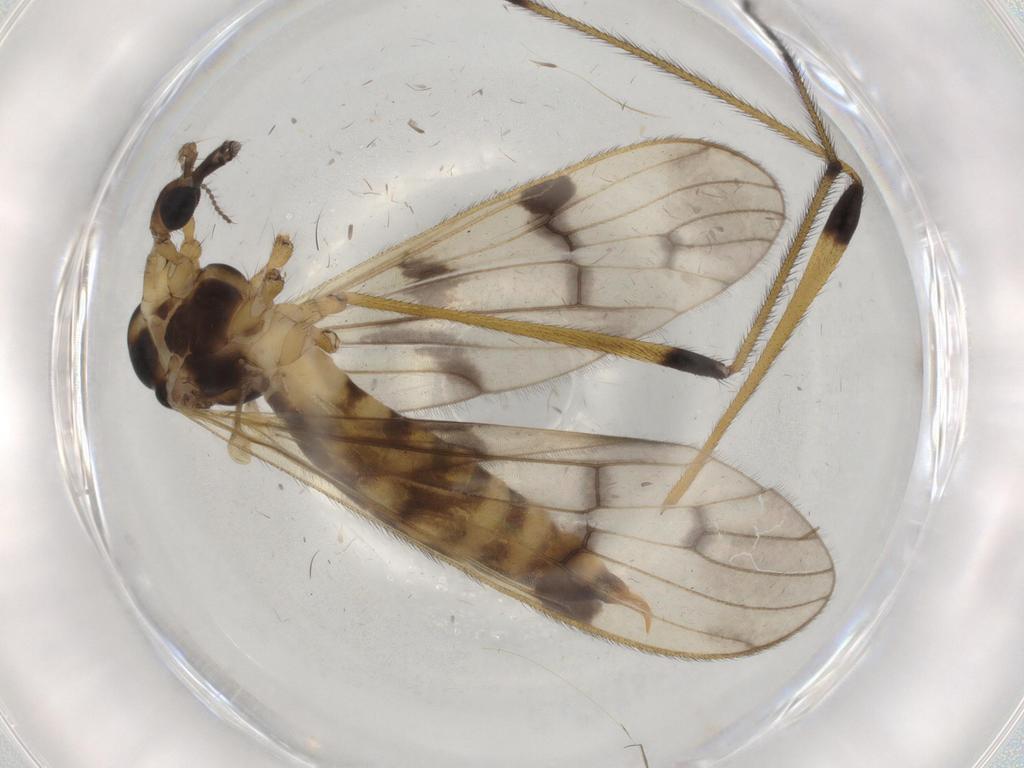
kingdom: Animalia
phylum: Arthropoda
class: Insecta
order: Diptera
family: Limoniidae
